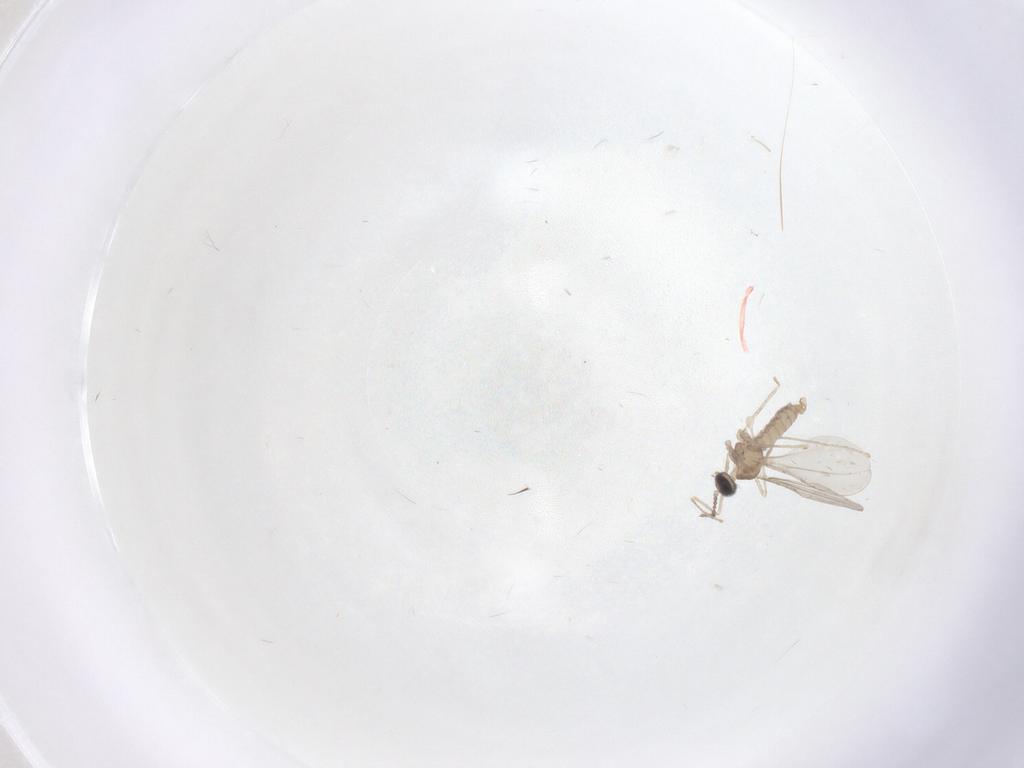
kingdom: Animalia
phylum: Arthropoda
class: Insecta
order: Diptera
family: Cecidomyiidae
